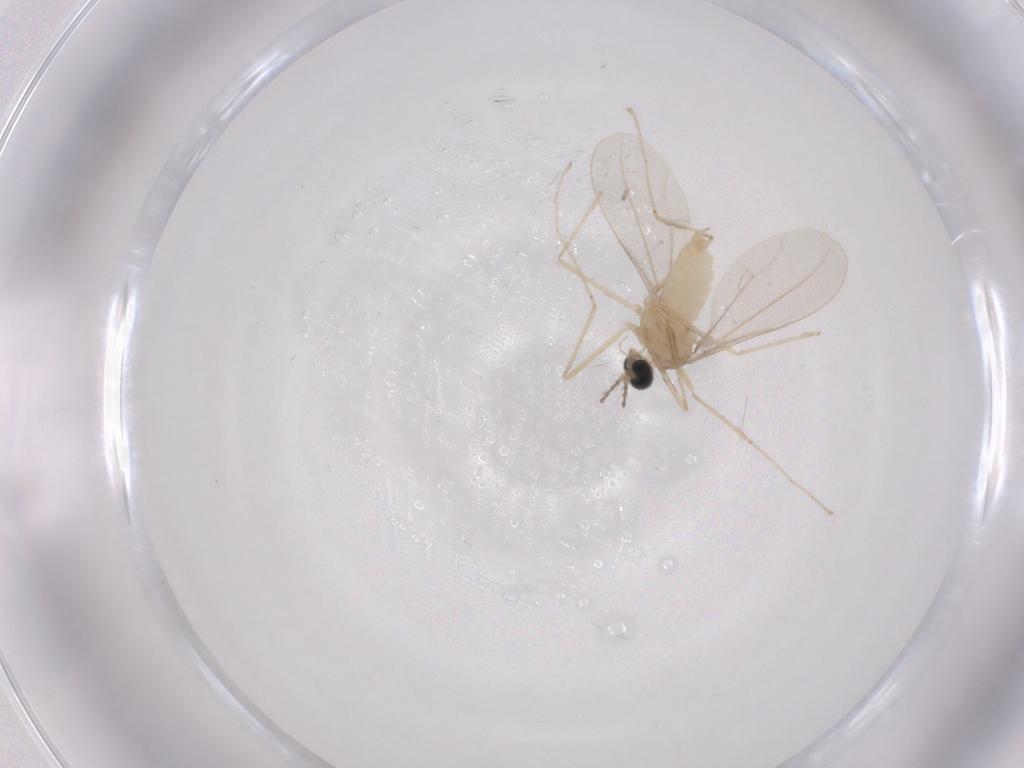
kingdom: Animalia
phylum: Arthropoda
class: Insecta
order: Diptera
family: Cecidomyiidae
